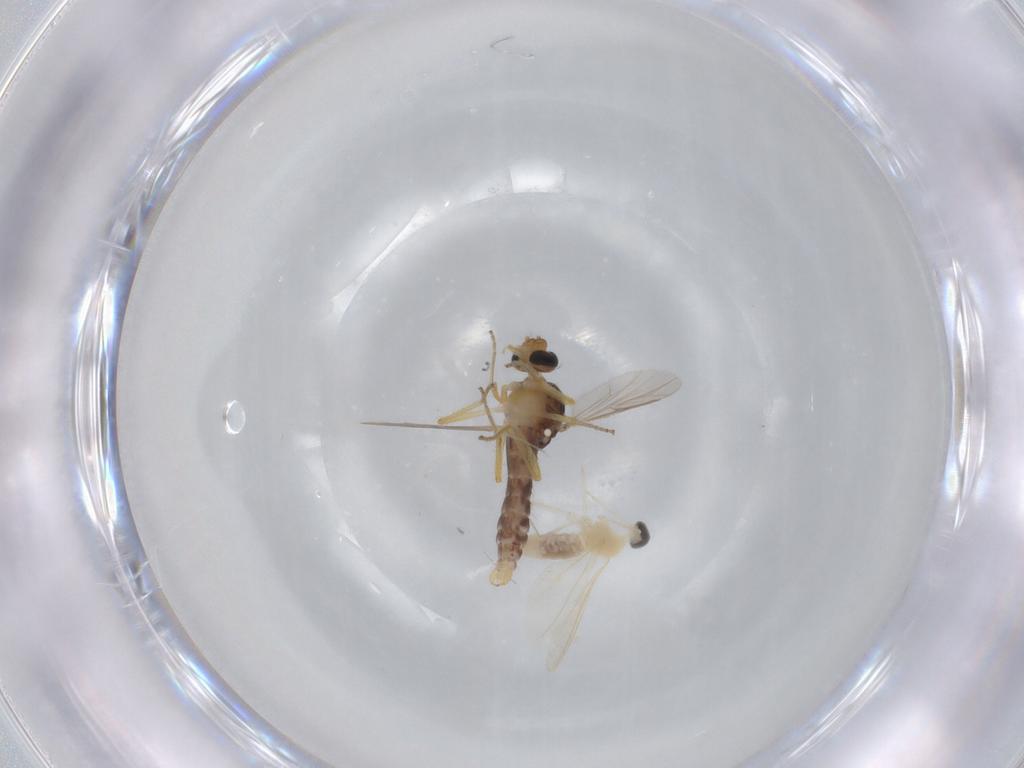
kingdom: Animalia
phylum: Arthropoda
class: Insecta
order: Diptera
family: Cecidomyiidae
